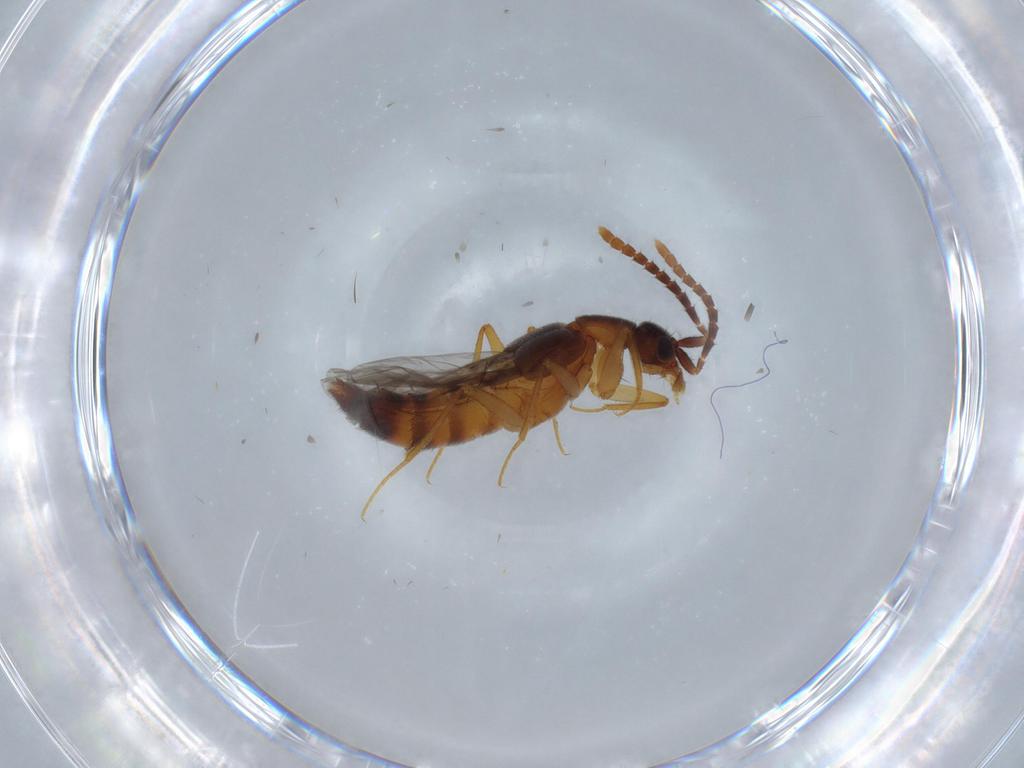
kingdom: Animalia
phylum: Arthropoda
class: Insecta
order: Coleoptera
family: Staphylinidae
